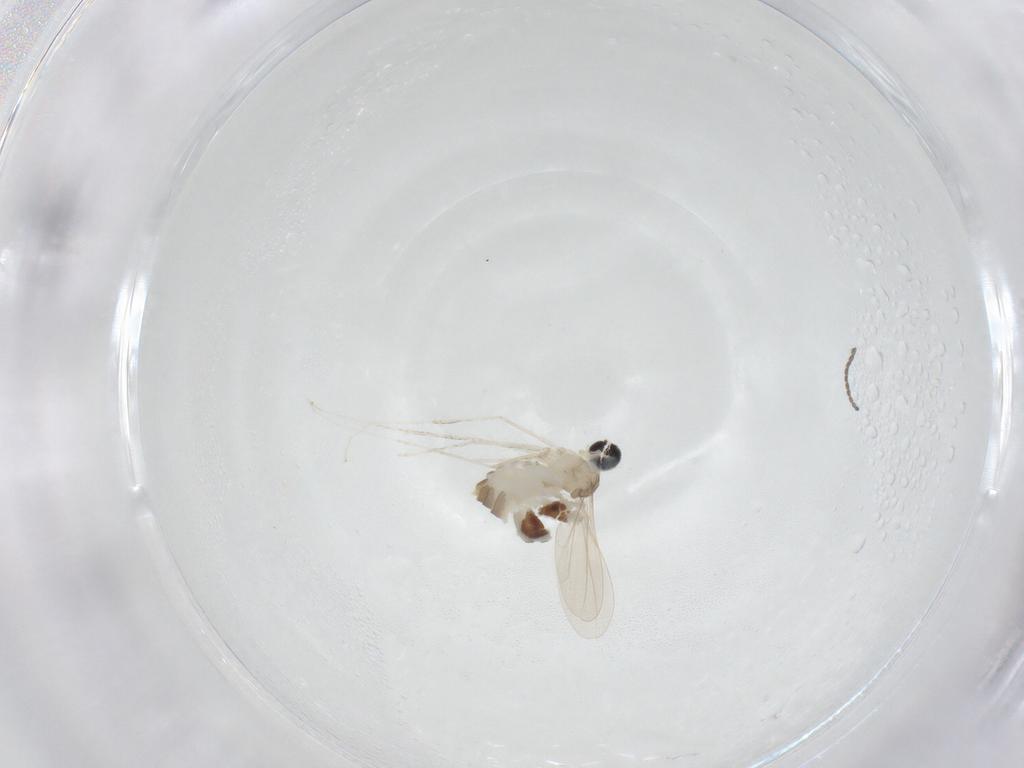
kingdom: Animalia
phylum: Arthropoda
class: Insecta
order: Diptera
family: Cecidomyiidae
